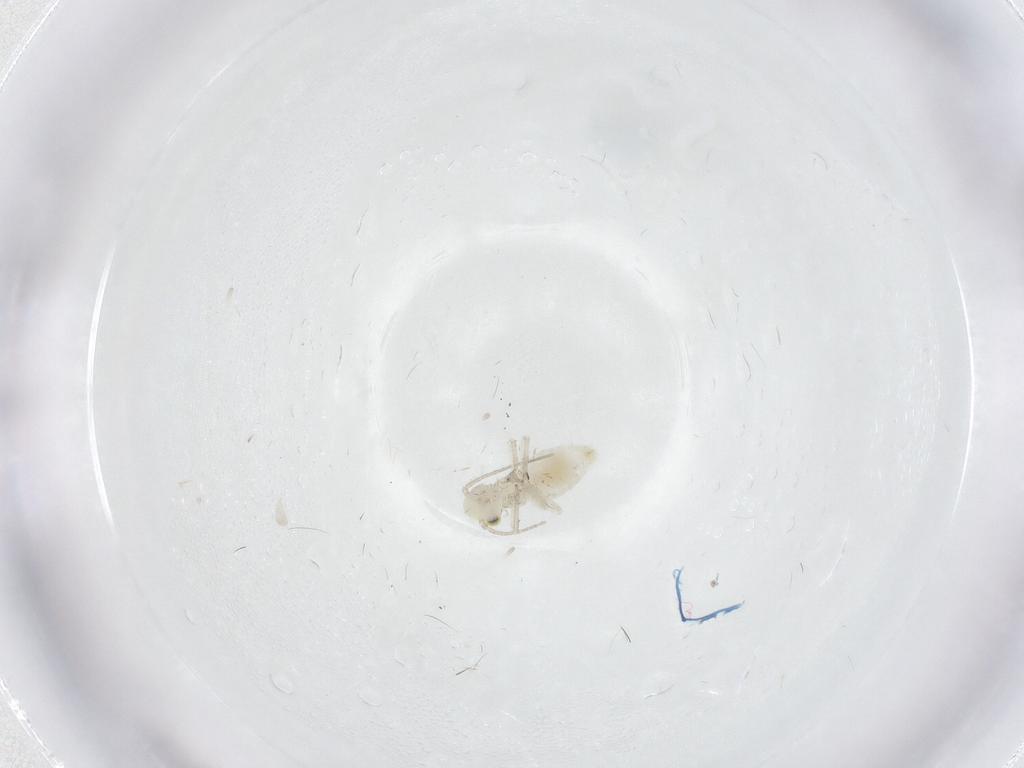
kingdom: Animalia
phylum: Arthropoda
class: Insecta
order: Psocodea
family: Caeciliusidae
